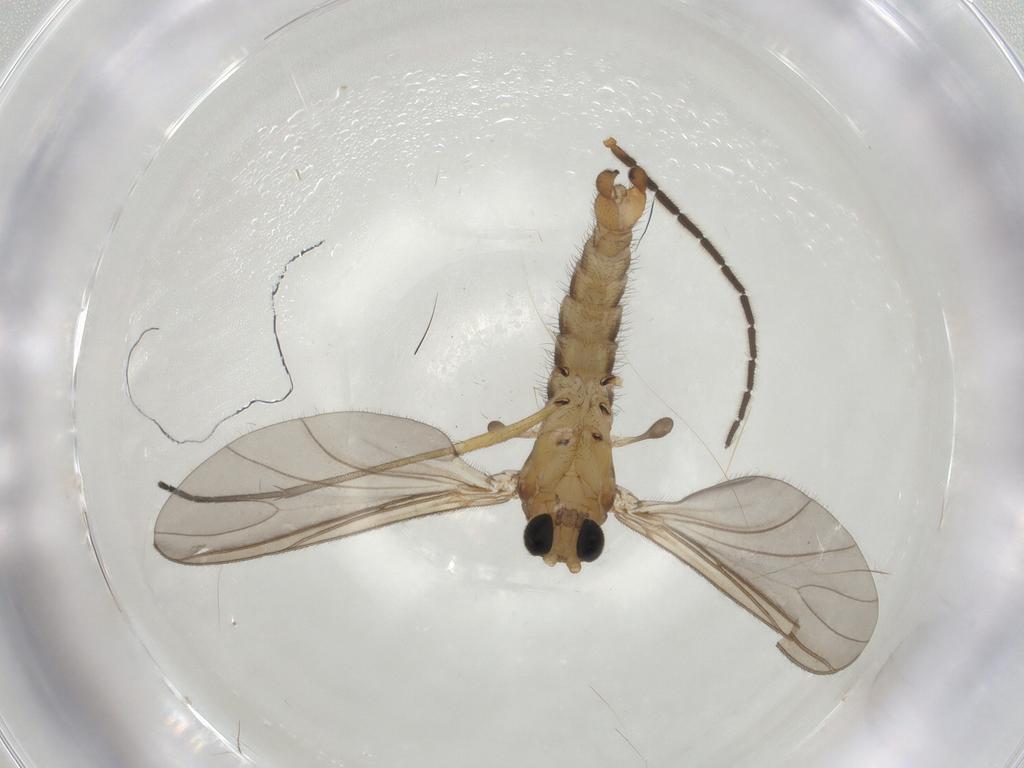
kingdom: Animalia
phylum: Arthropoda
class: Insecta
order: Diptera
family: Sciaridae
